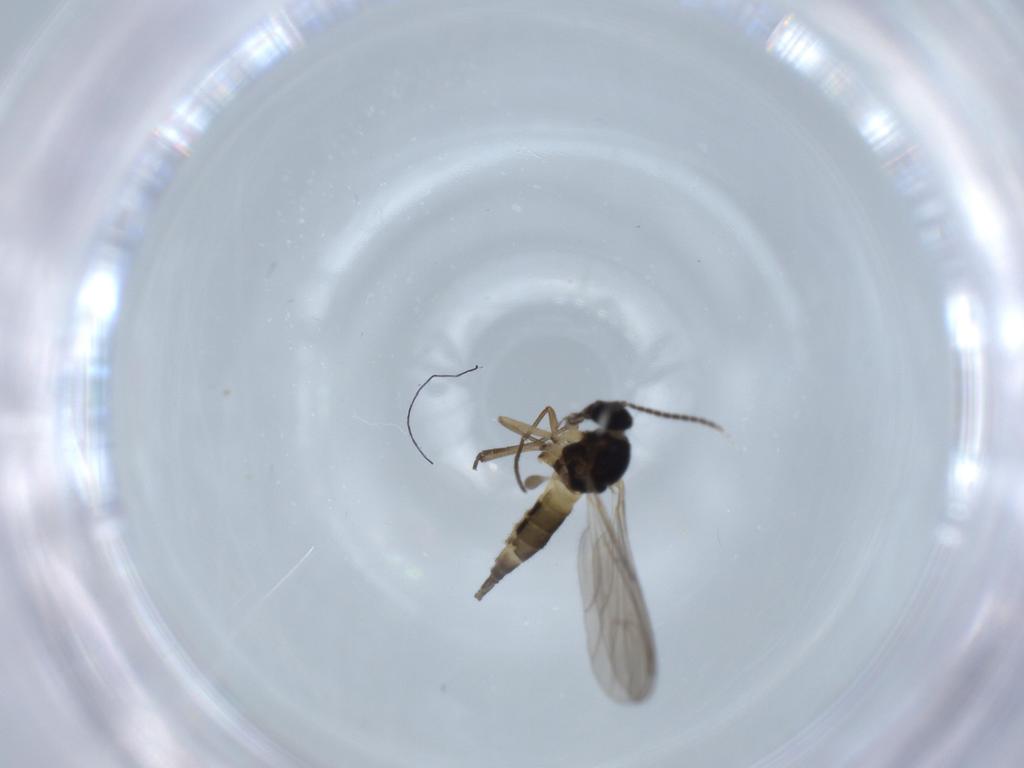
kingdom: Animalia
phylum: Arthropoda
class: Insecta
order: Diptera
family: Sciaridae
